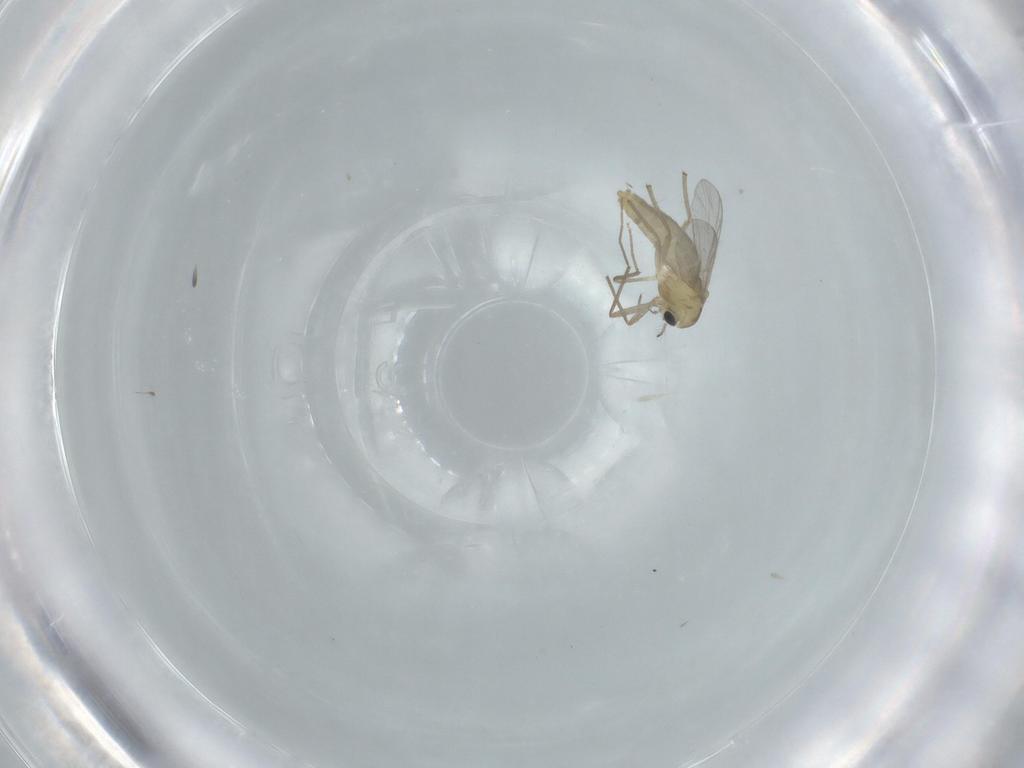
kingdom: Animalia
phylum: Arthropoda
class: Insecta
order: Diptera
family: Chironomidae
